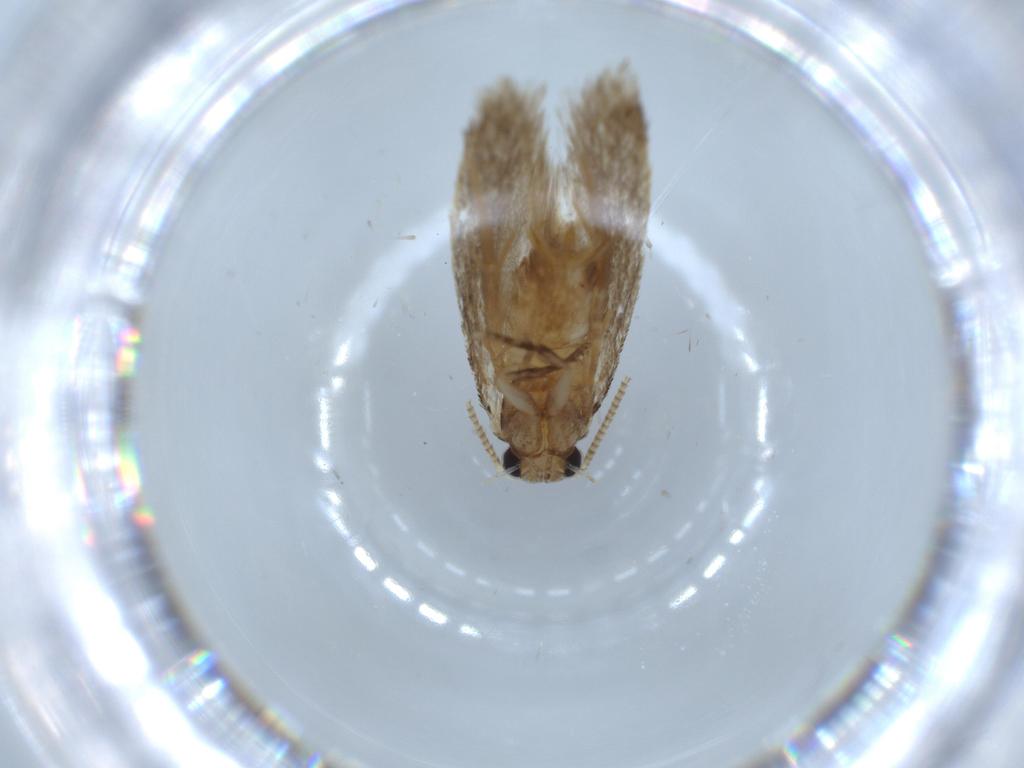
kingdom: Animalia
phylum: Arthropoda
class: Insecta
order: Lepidoptera
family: Tineidae
